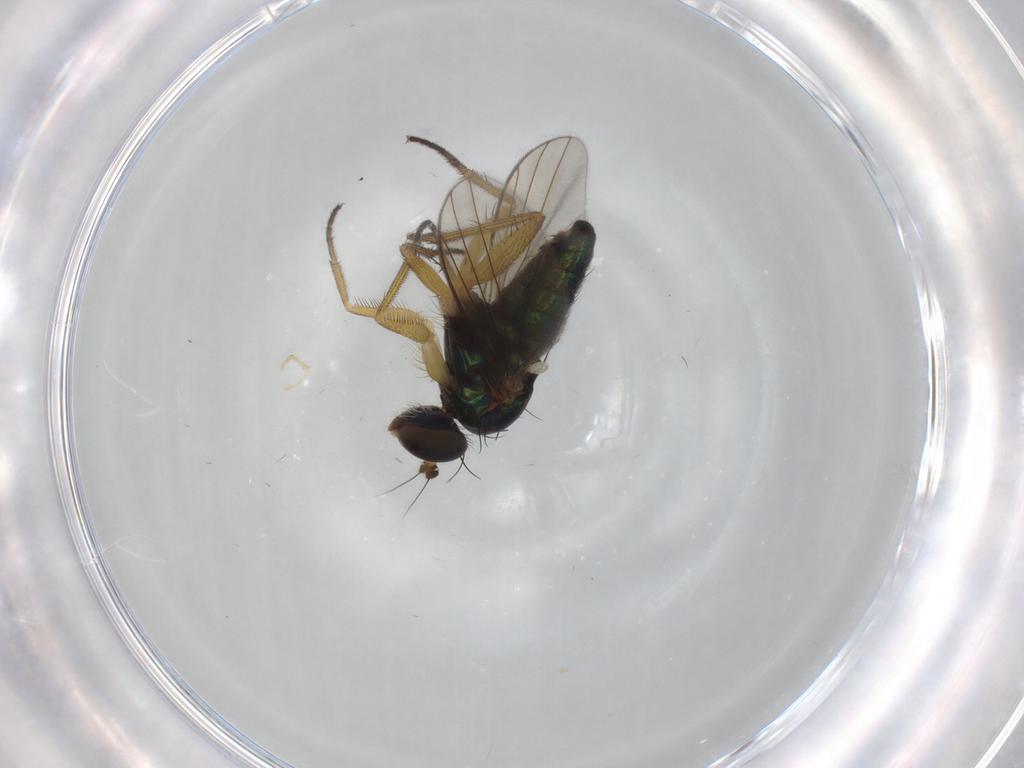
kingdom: Animalia
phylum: Arthropoda
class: Insecta
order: Diptera
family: Dolichopodidae
